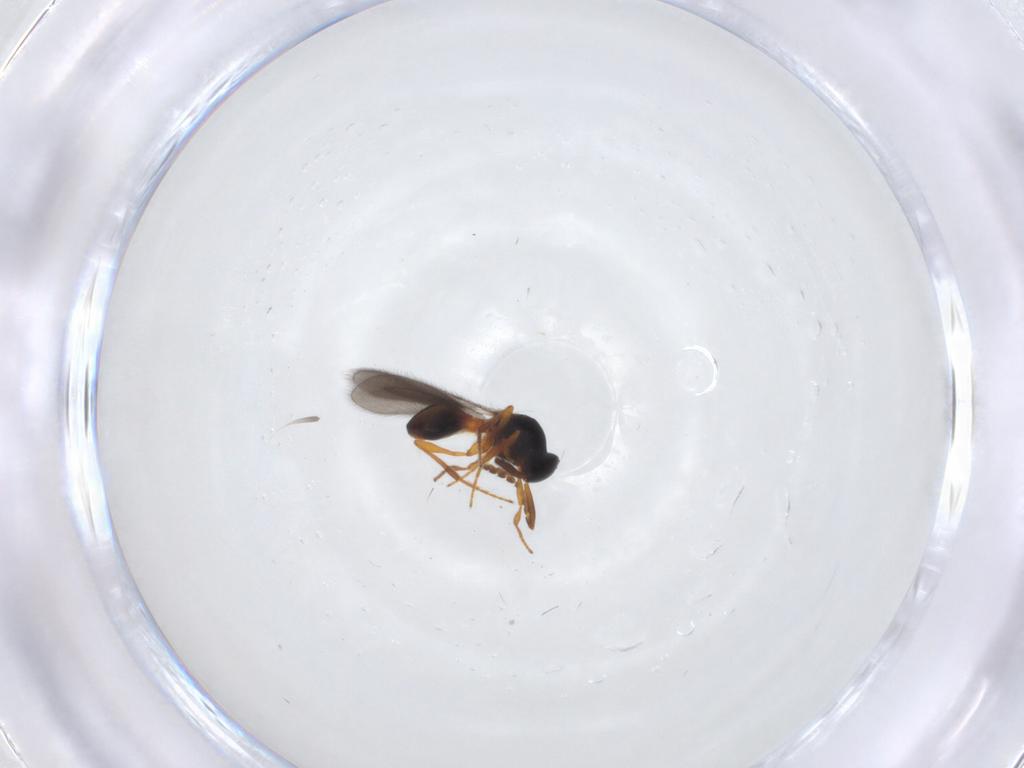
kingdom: Animalia
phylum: Arthropoda
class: Insecta
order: Hymenoptera
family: Platygastridae
